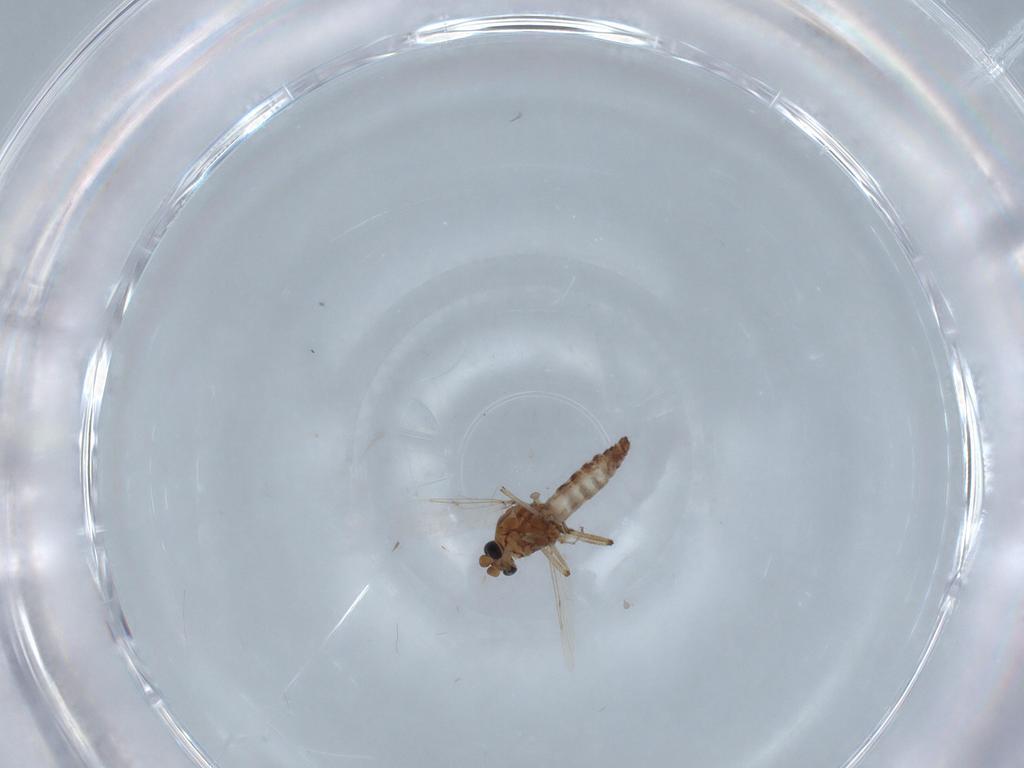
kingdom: Animalia
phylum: Arthropoda
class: Insecta
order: Diptera
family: Ceratopogonidae
